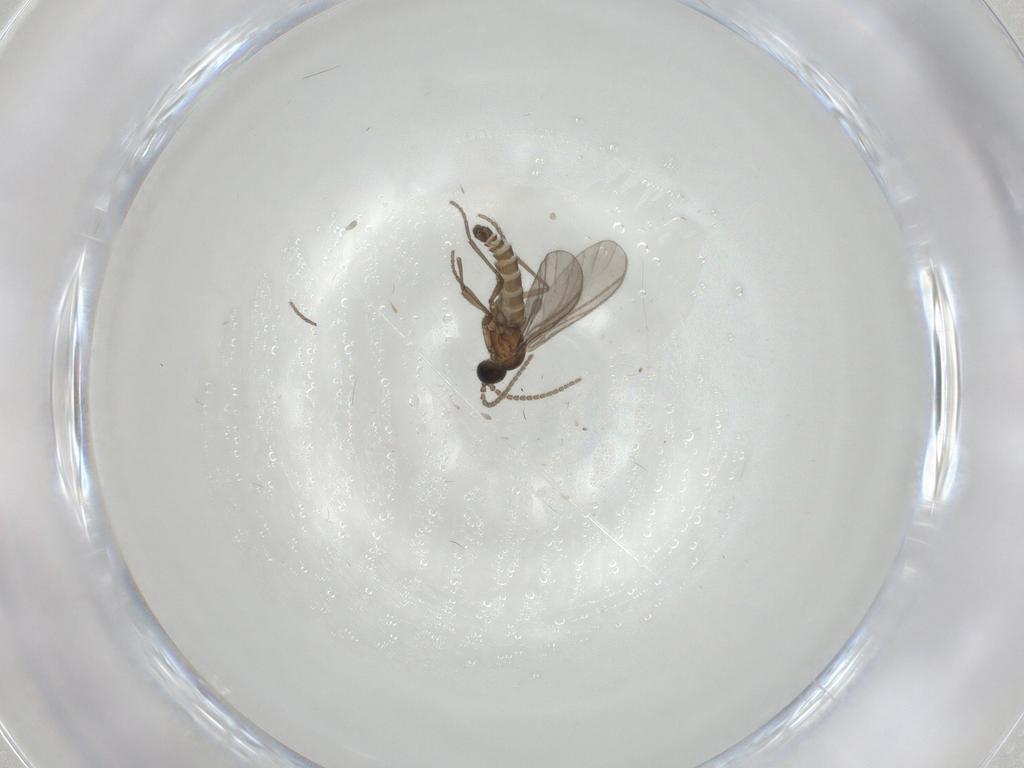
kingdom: Animalia
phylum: Arthropoda
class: Insecta
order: Diptera
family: Sciaridae
